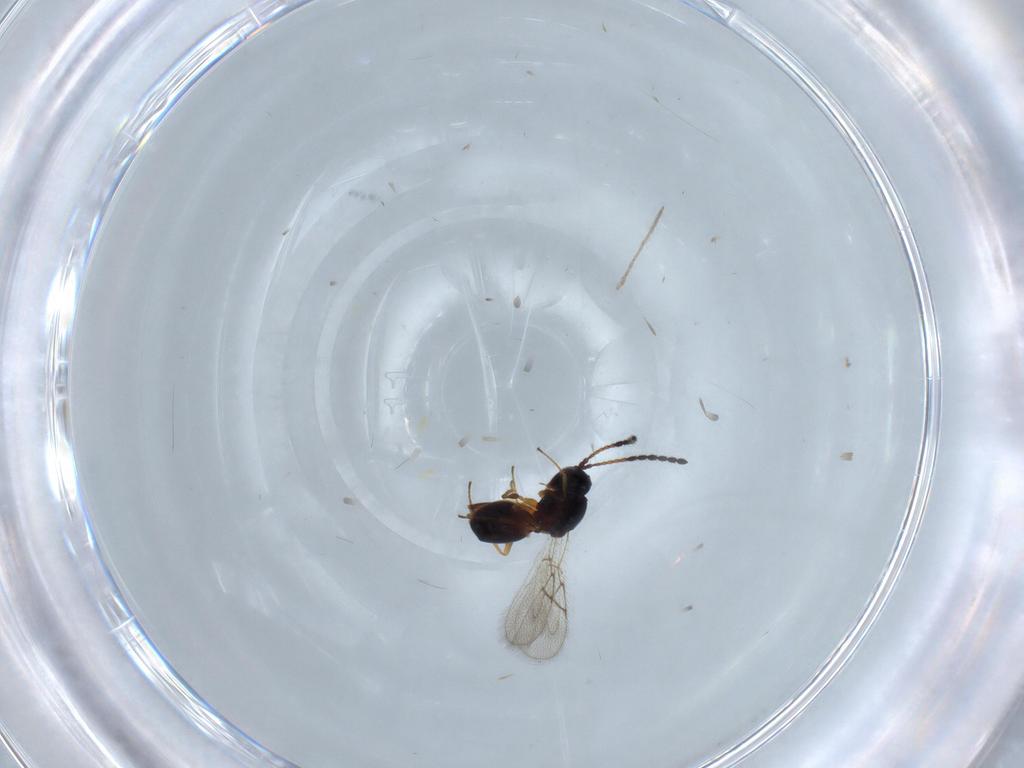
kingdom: Animalia
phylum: Arthropoda
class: Insecta
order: Hymenoptera
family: Figitidae
